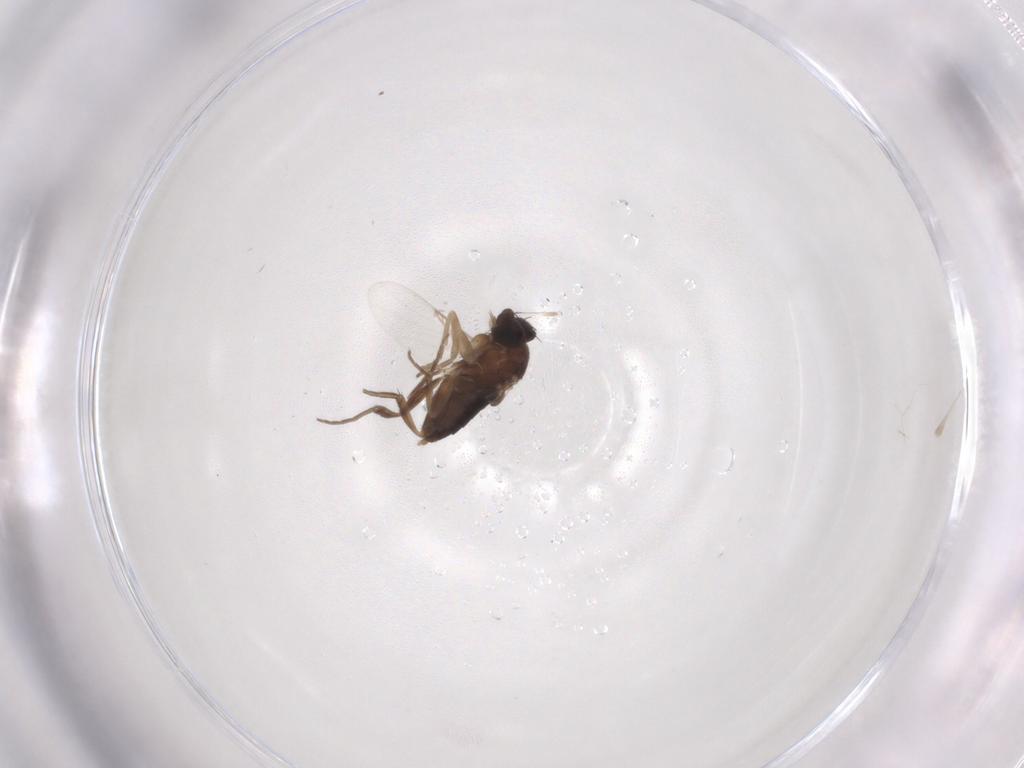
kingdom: Animalia
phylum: Arthropoda
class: Insecta
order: Diptera
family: Phoridae
